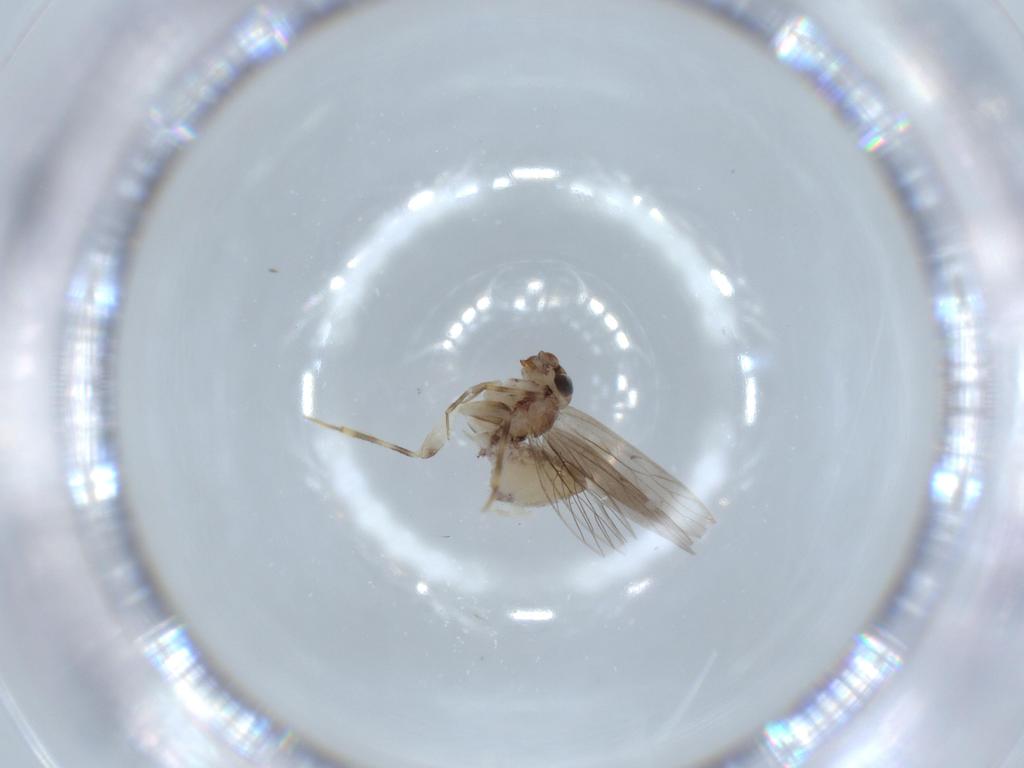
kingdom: Animalia
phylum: Arthropoda
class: Insecta
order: Psocodea
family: Lepidopsocidae
